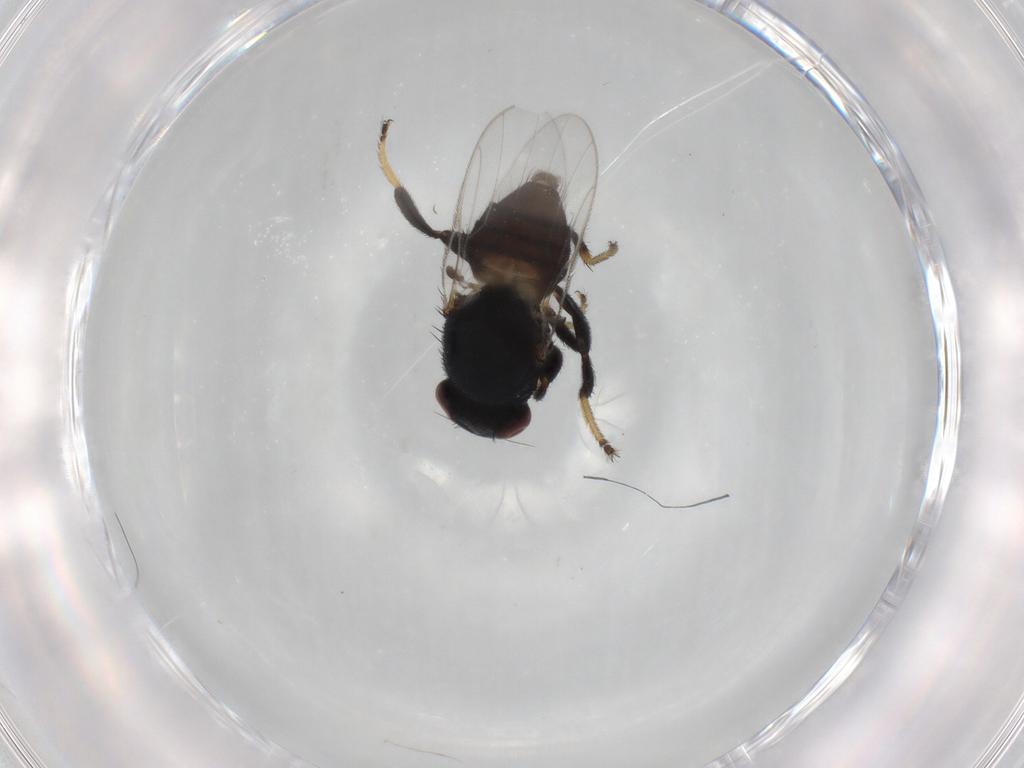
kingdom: Animalia
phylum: Arthropoda
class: Insecta
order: Diptera
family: Chloropidae
